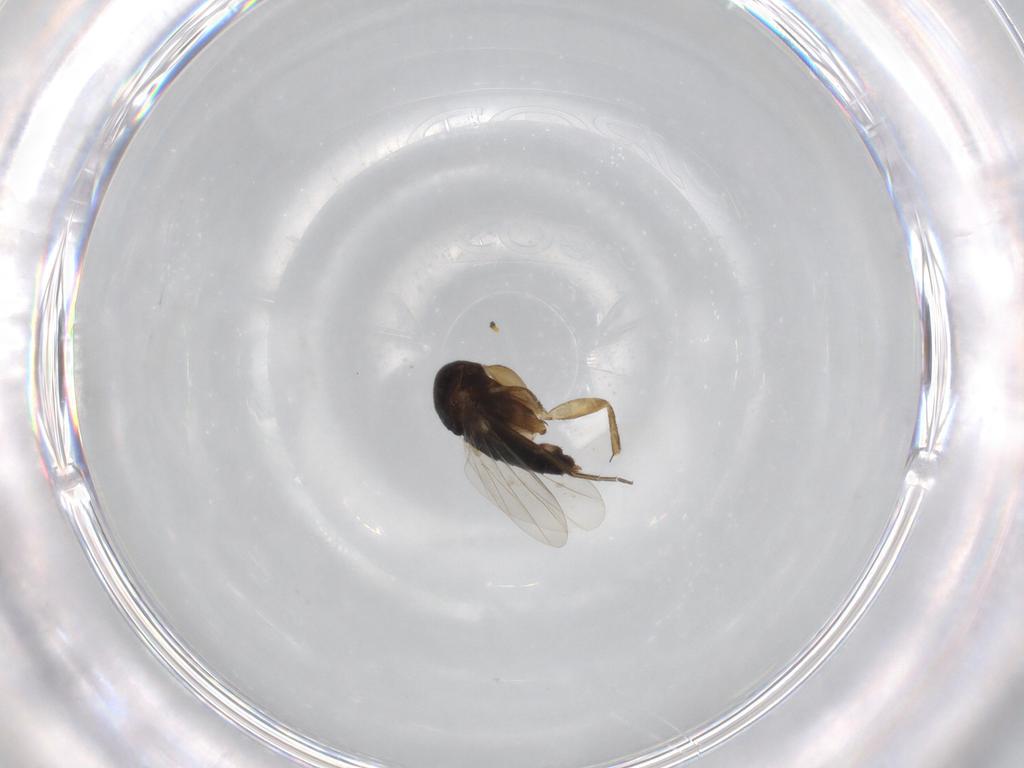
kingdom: Animalia
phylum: Arthropoda
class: Insecta
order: Diptera
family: Phoridae
